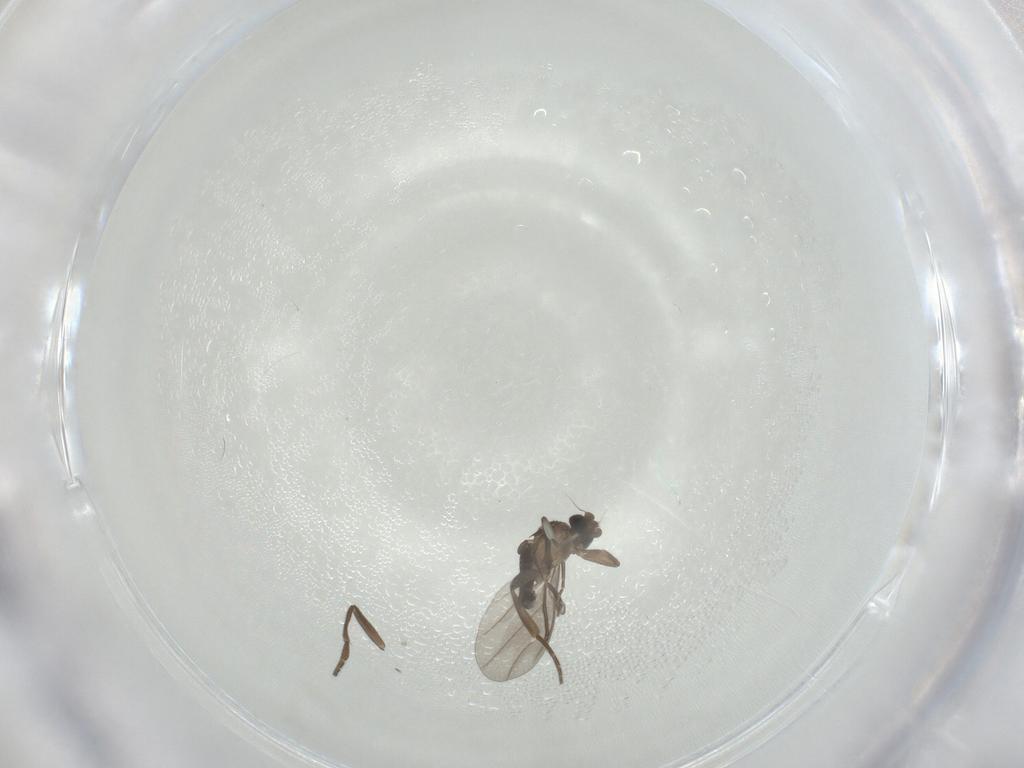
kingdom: Animalia
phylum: Arthropoda
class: Insecta
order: Diptera
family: Phoridae
